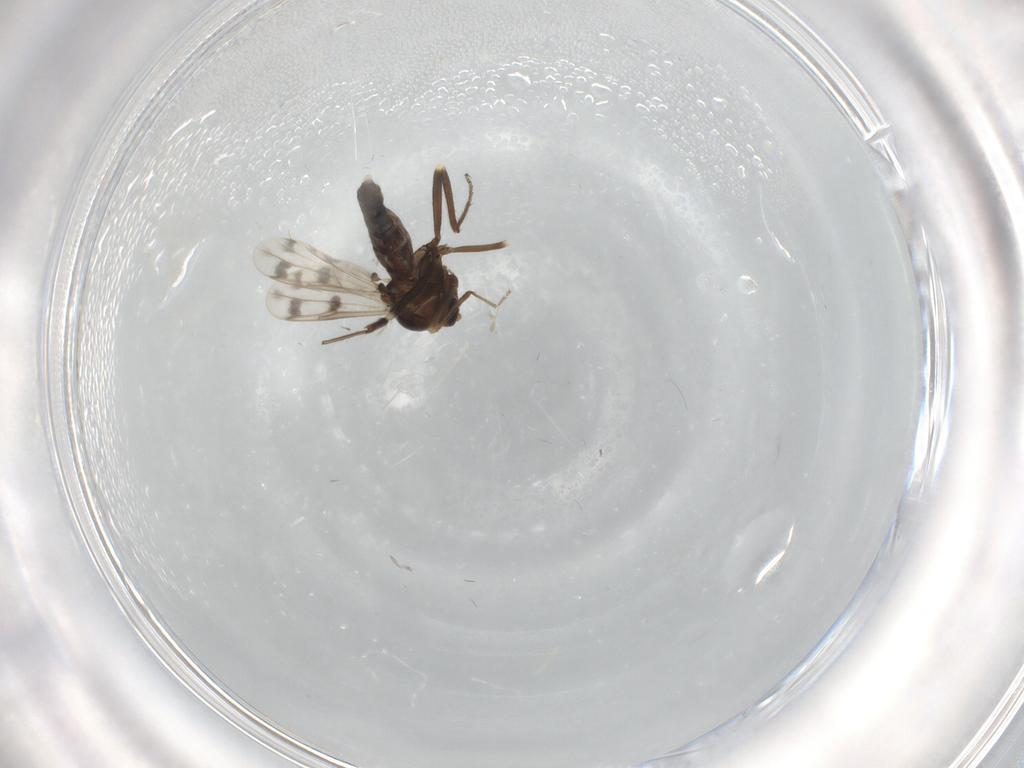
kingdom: Animalia
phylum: Arthropoda
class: Insecta
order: Diptera
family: Ceratopogonidae
